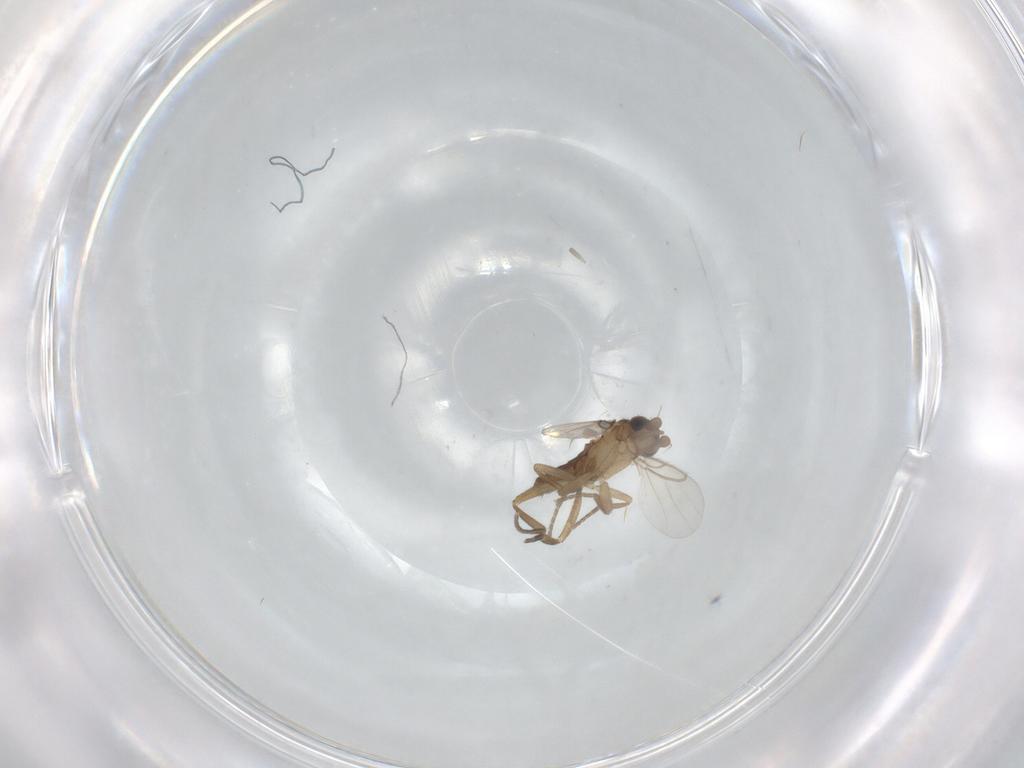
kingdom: Animalia
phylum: Arthropoda
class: Insecta
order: Diptera
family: Phoridae
